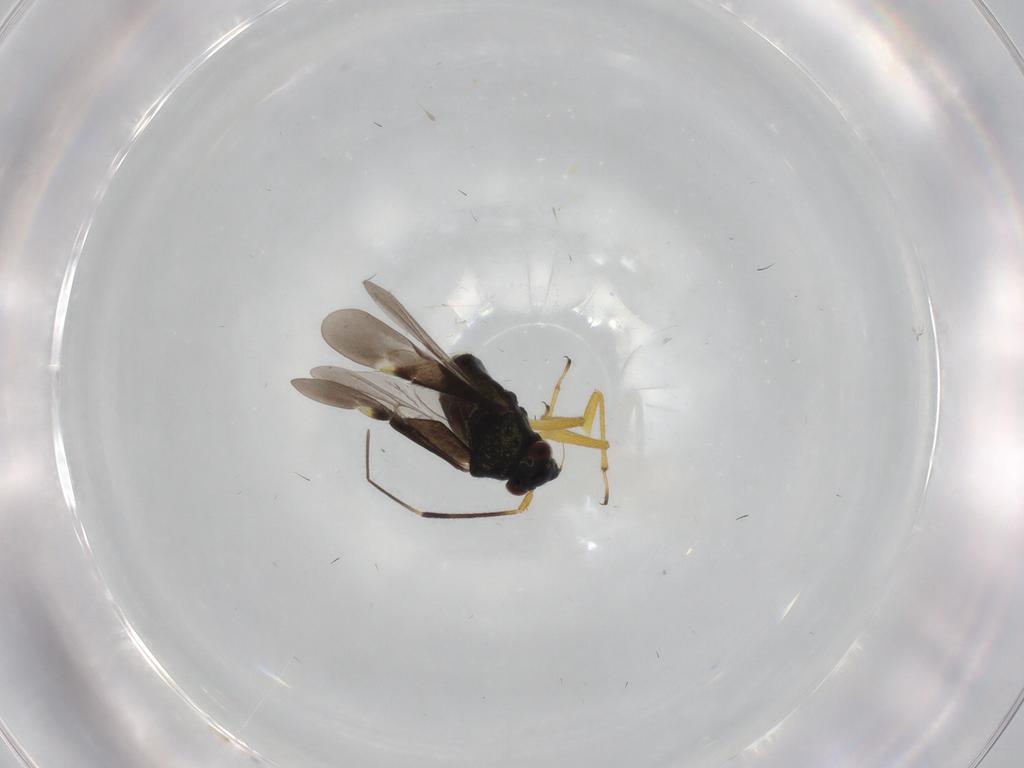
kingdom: Animalia
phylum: Arthropoda
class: Insecta
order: Hemiptera
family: Miridae
